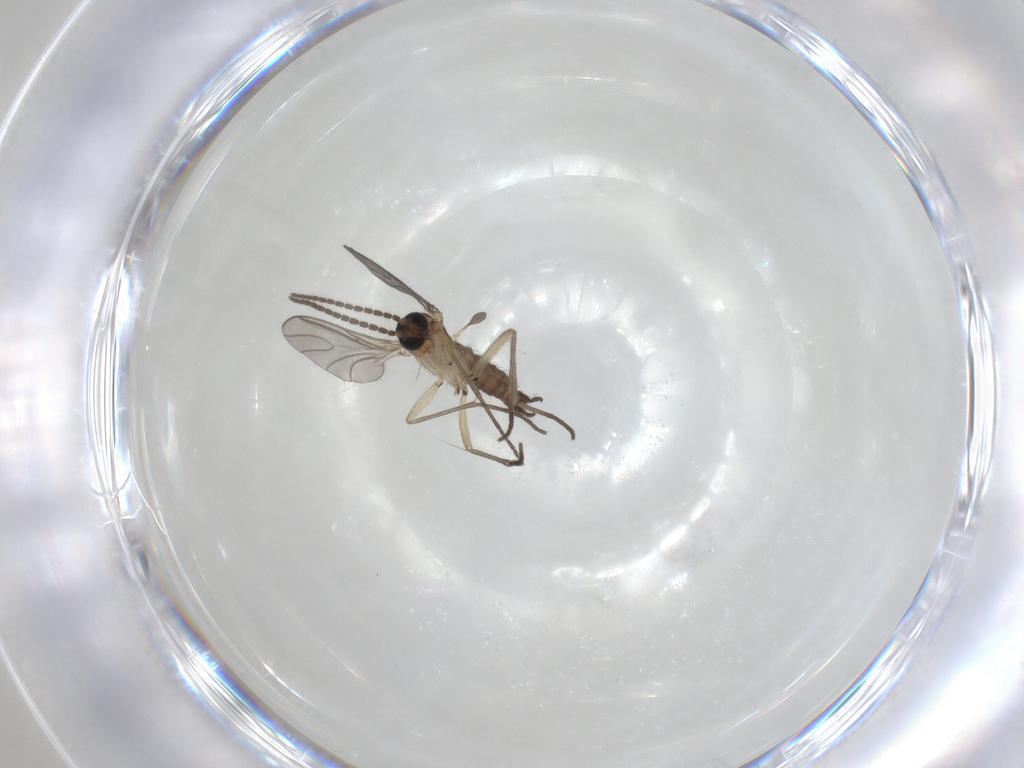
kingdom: Animalia
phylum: Arthropoda
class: Insecta
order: Diptera
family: Sciaridae
